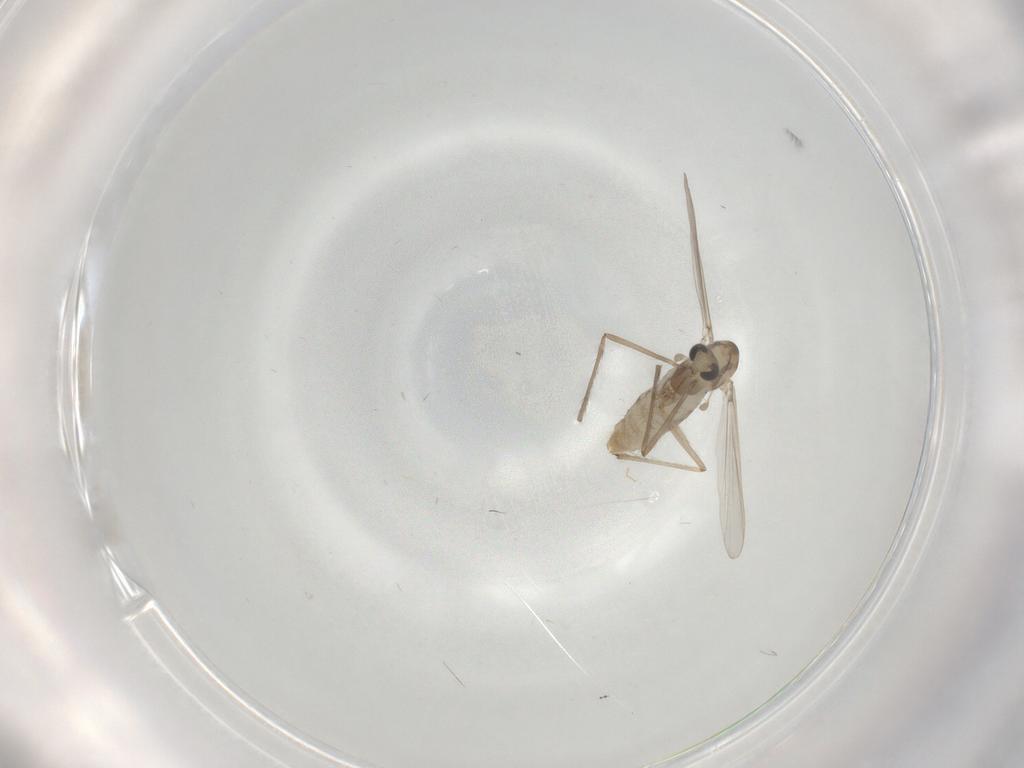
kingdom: Animalia
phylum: Arthropoda
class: Insecta
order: Diptera
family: Chironomidae
